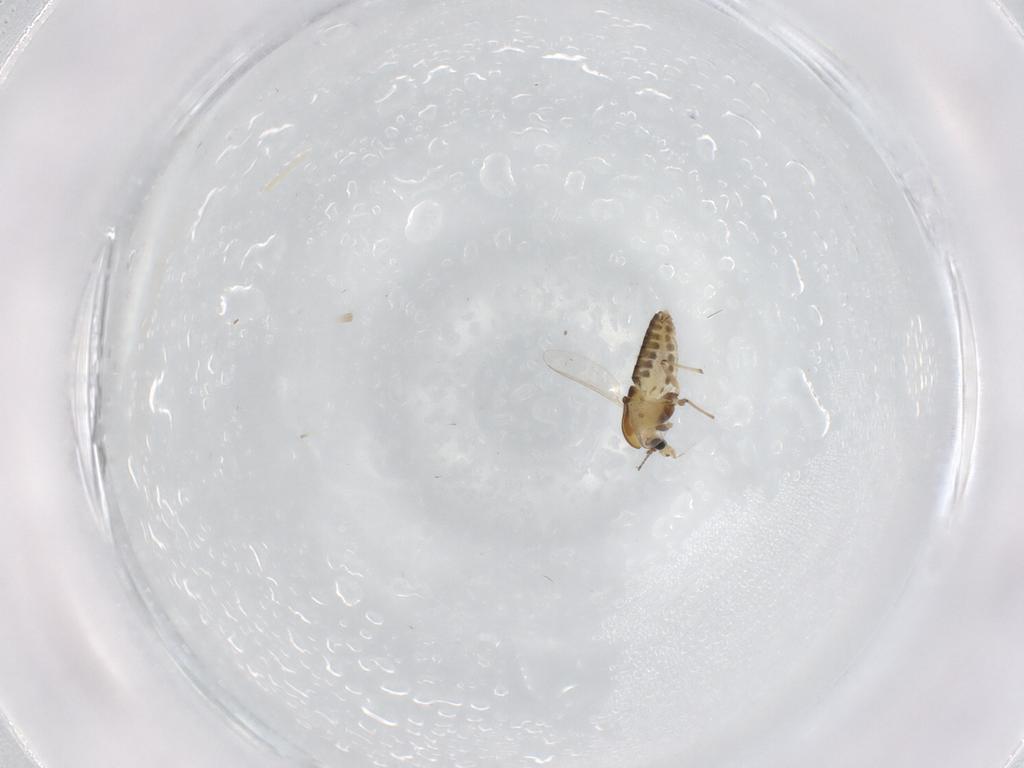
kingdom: Animalia
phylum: Arthropoda
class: Insecta
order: Diptera
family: Chironomidae
